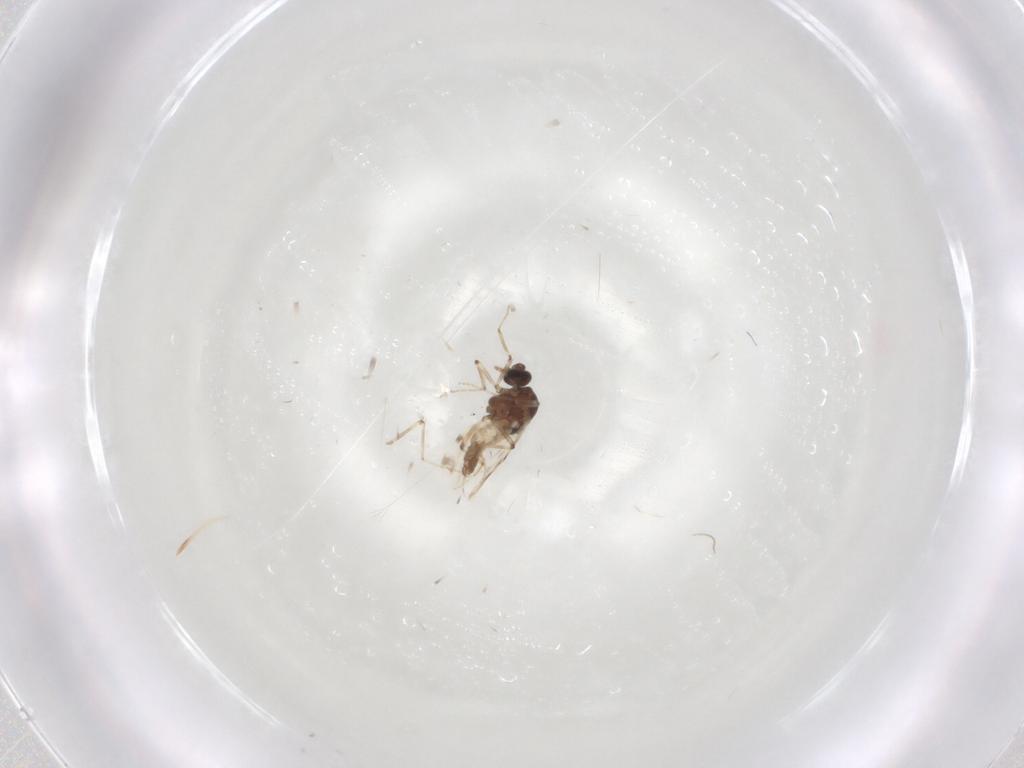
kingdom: Animalia
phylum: Arthropoda
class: Insecta
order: Diptera
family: Ceratopogonidae
